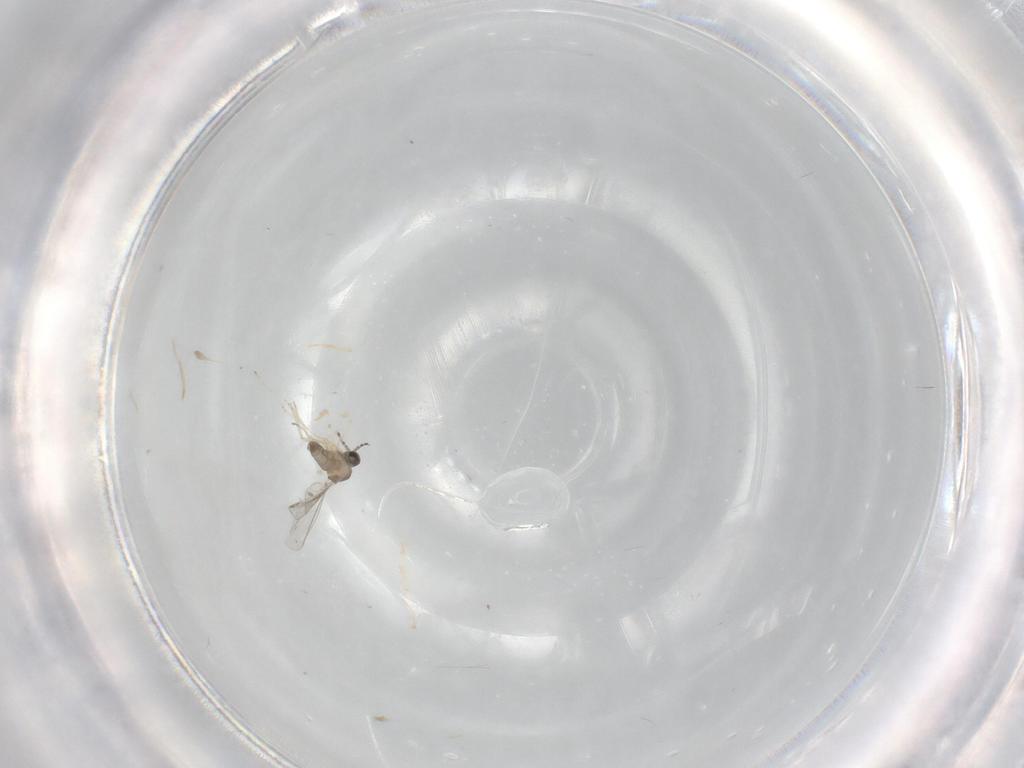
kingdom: Animalia
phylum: Arthropoda
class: Insecta
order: Diptera
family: Cecidomyiidae
